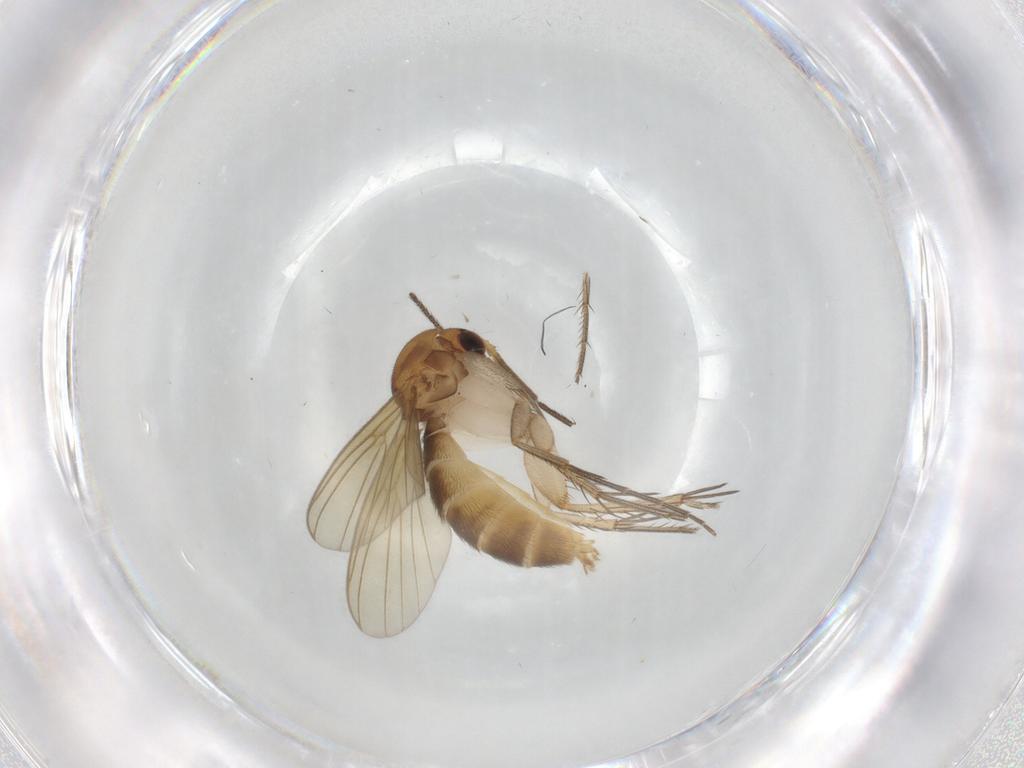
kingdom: Animalia
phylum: Arthropoda
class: Insecta
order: Diptera
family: Mycetophilidae
